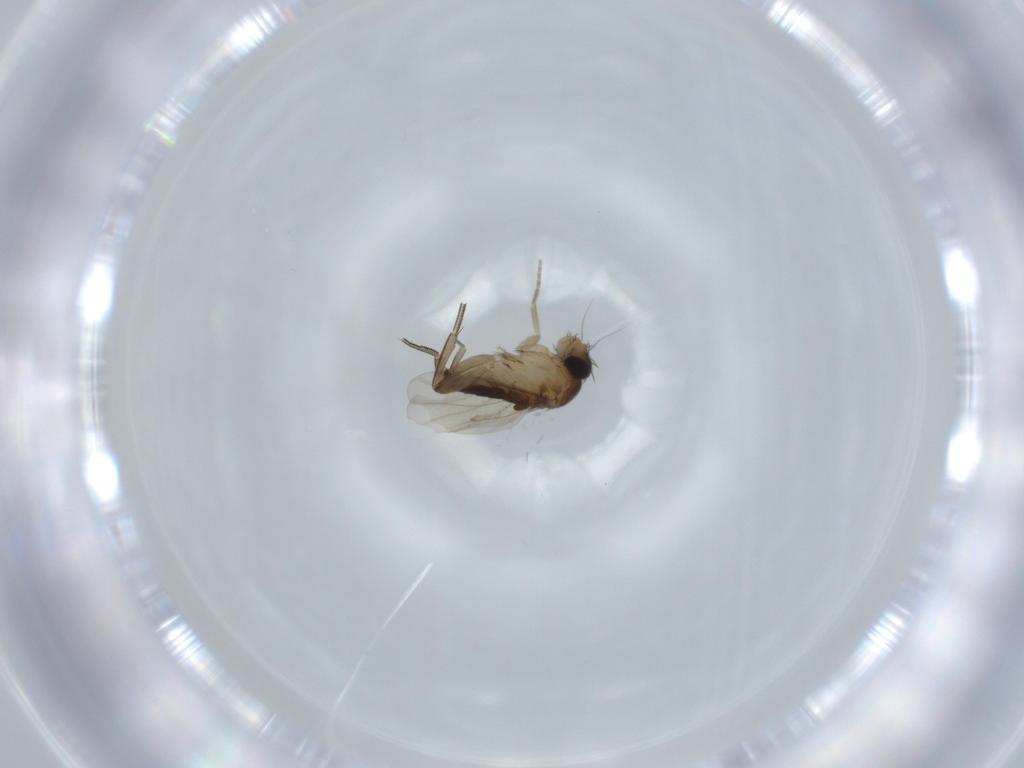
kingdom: Animalia
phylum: Arthropoda
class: Insecta
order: Diptera
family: Phoridae
